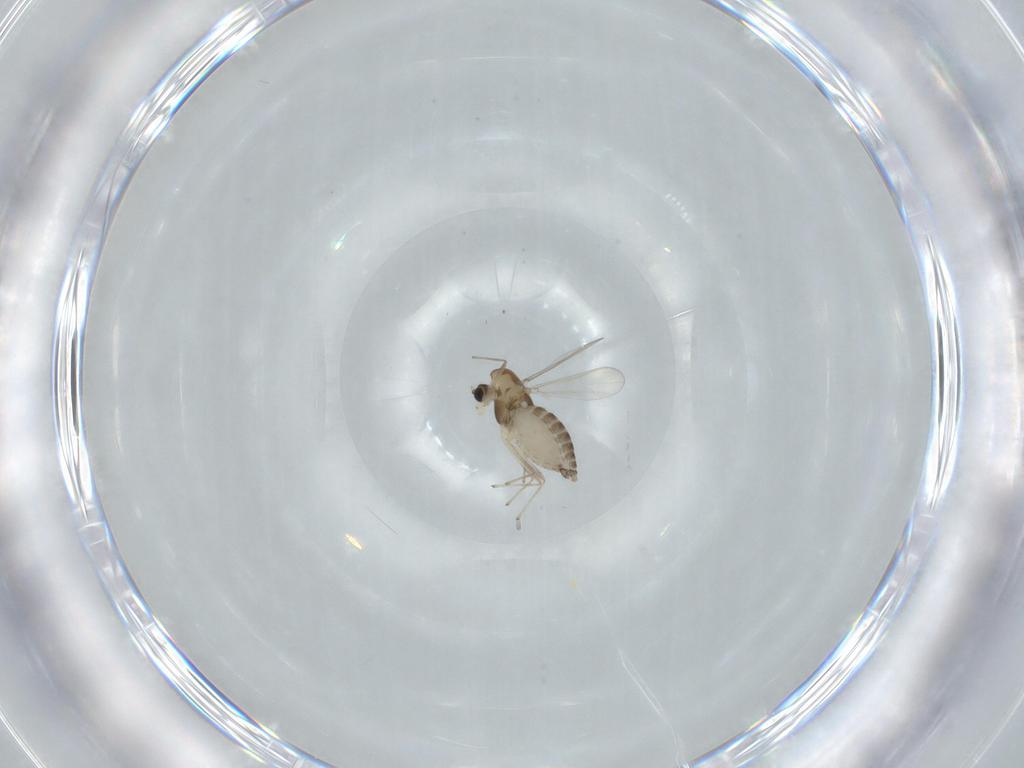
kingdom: Animalia
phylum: Arthropoda
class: Insecta
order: Diptera
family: Chironomidae
